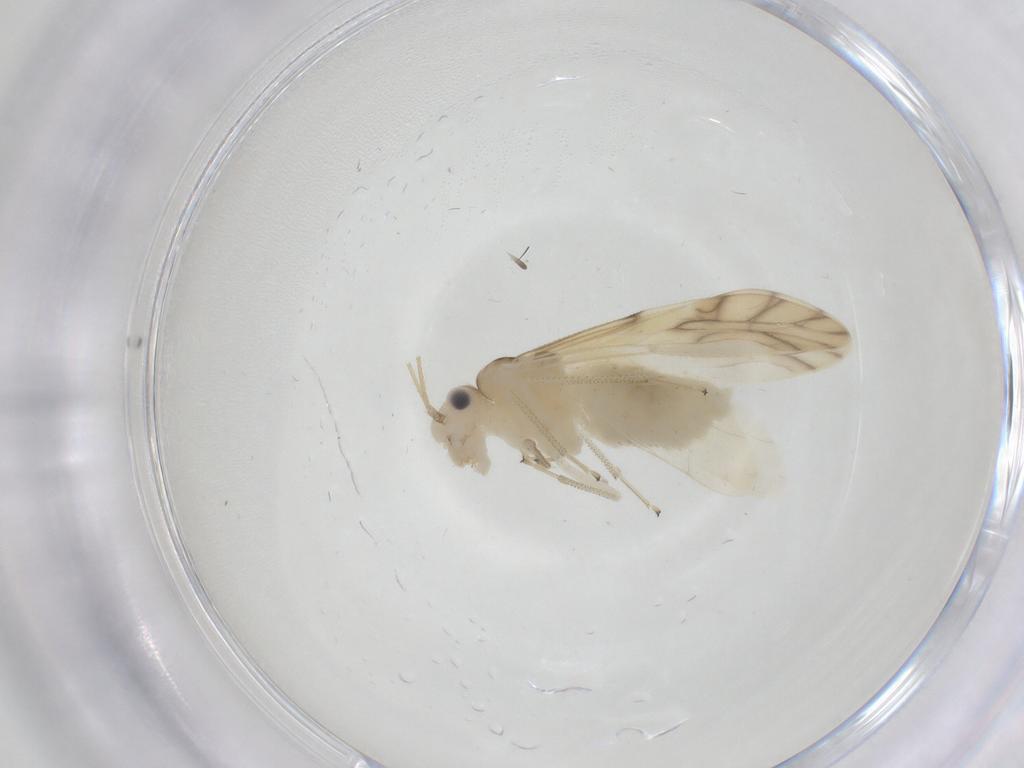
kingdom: Animalia
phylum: Arthropoda
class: Insecta
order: Psocodea
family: Caeciliusidae
